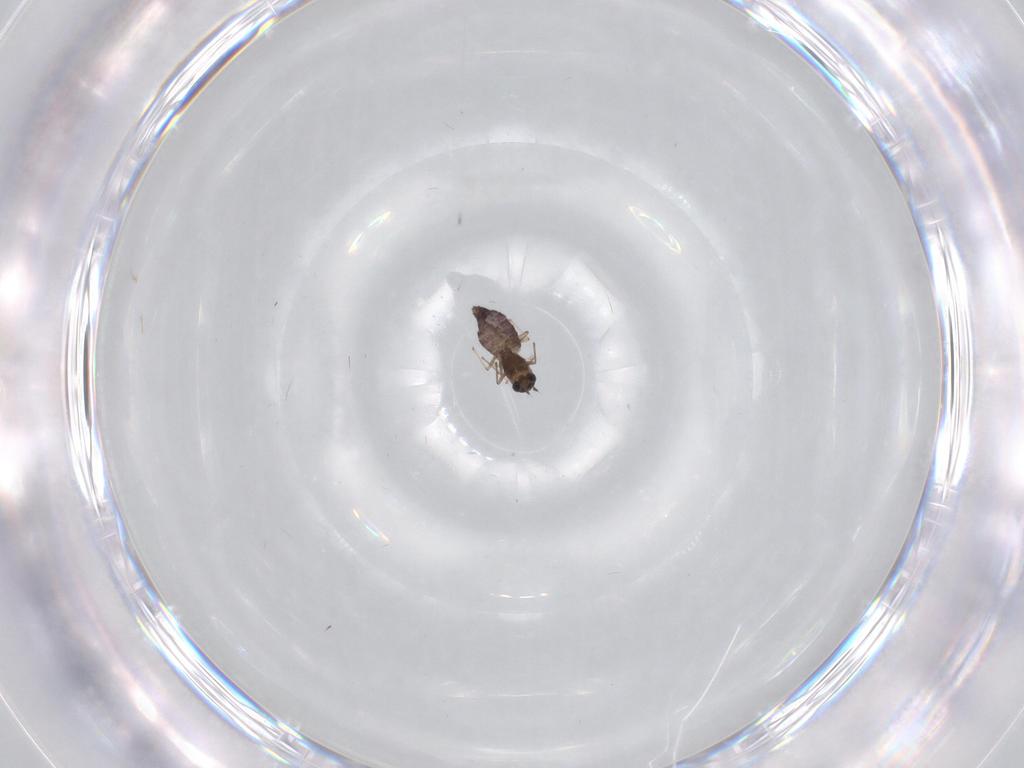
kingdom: Animalia
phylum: Arthropoda
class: Insecta
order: Diptera
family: Chironomidae
